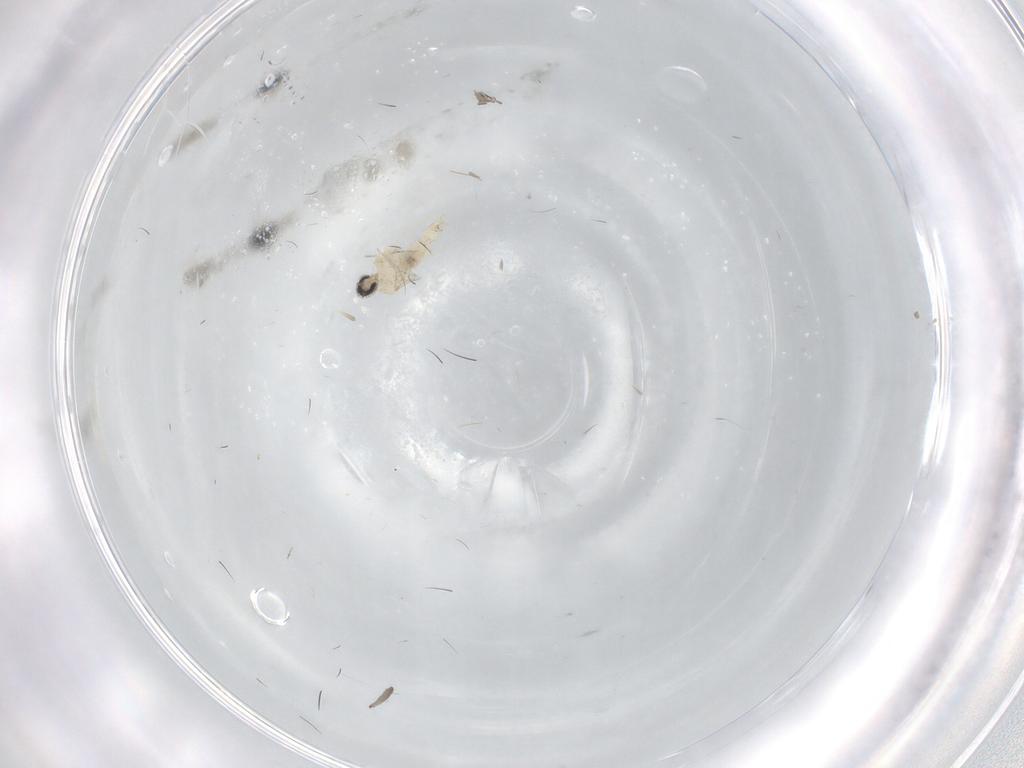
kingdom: Animalia
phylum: Arthropoda
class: Insecta
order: Diptera
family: Cecidomyiidae
